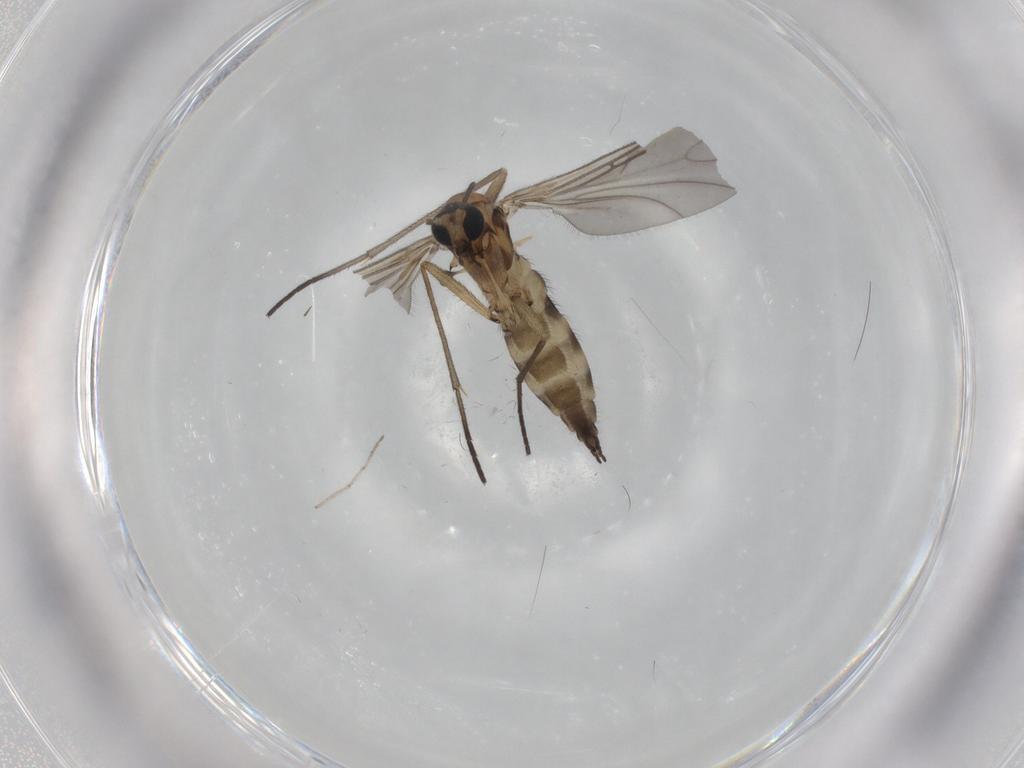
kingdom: Animalia
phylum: Arthropoda
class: Insecta
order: Diptera
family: Sciaridae
